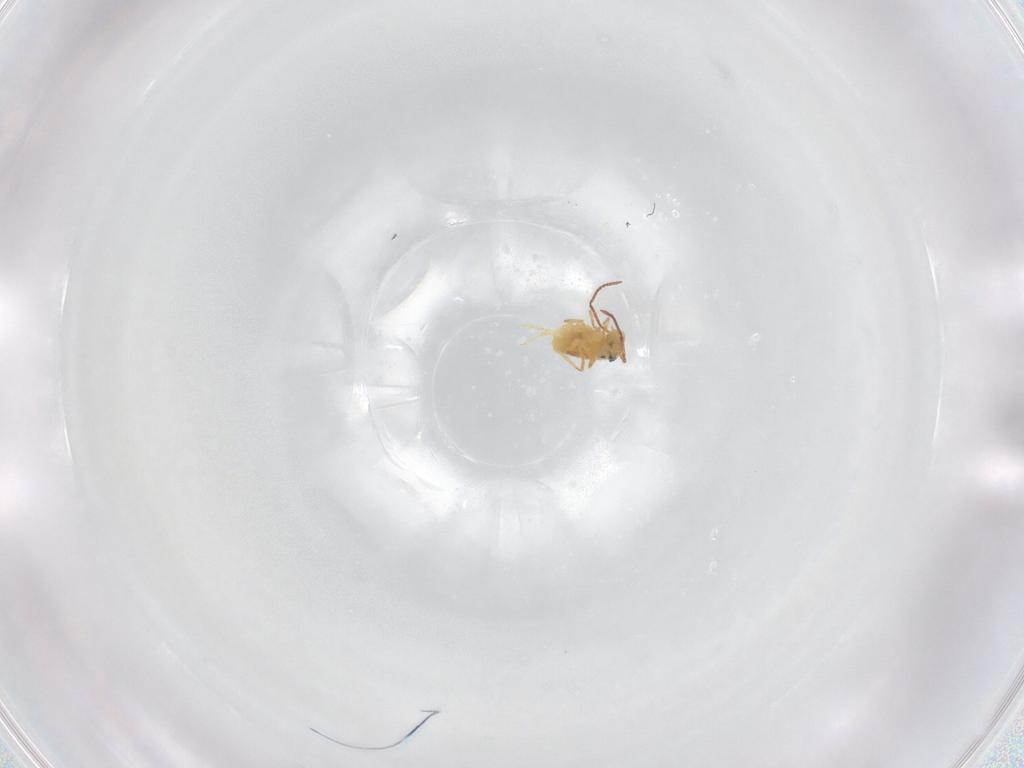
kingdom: Animalia
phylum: Arthropoda
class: Collembola
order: Symphypleona
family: Bourletiellidae
